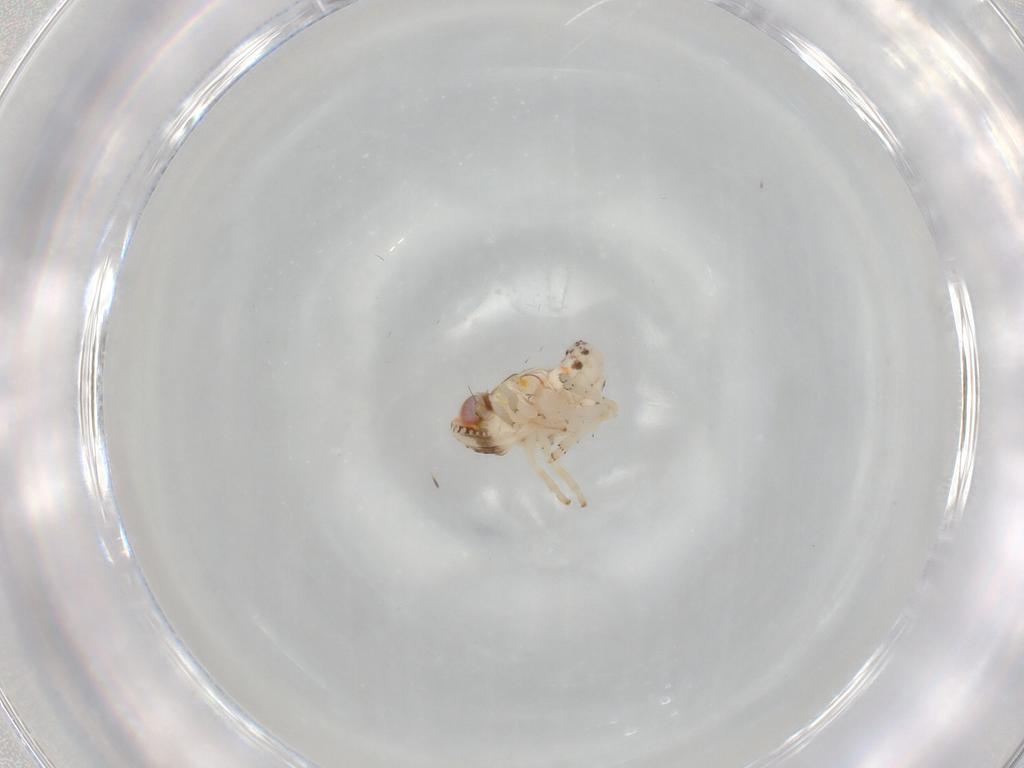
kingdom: Animalia
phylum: Arthropoda
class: Insecta
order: Hemiptera
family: Nogodinidae
